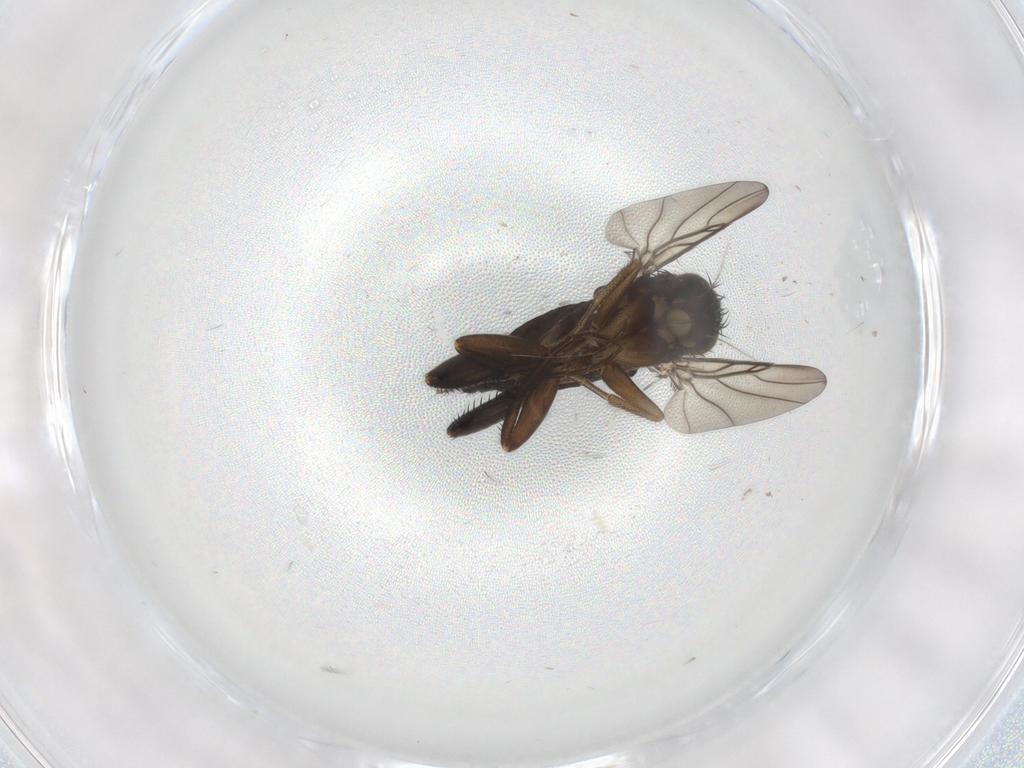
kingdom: Animalia
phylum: Arthropoda
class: Insecta
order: Diptera
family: Phoridae
